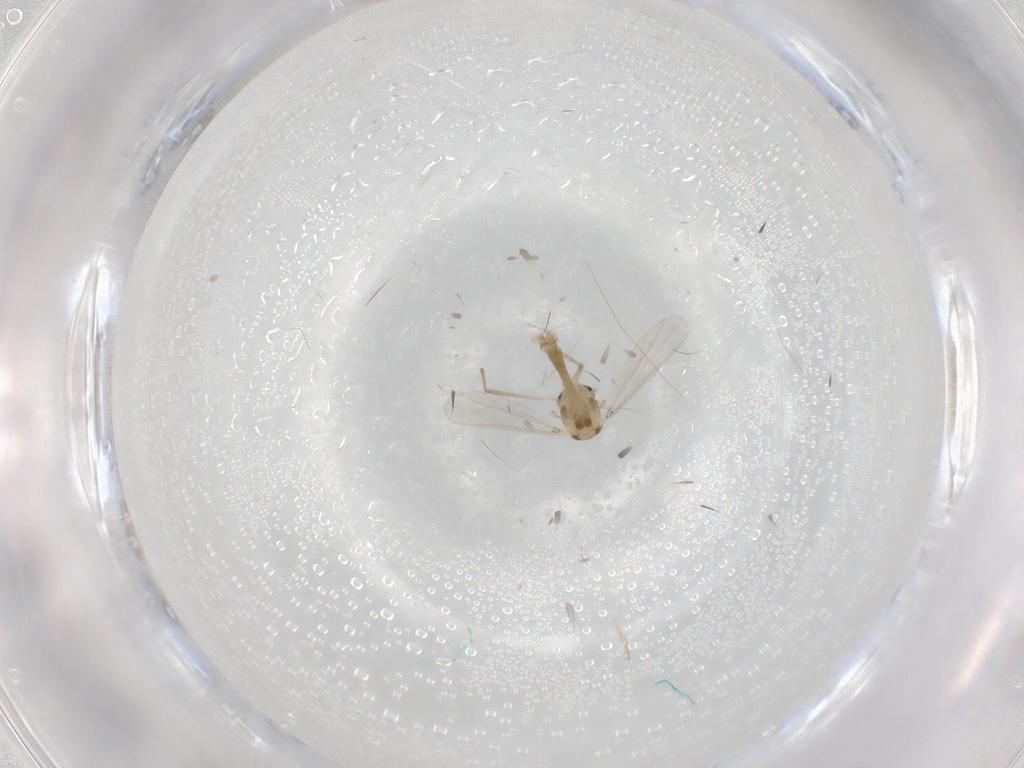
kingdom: Animalia
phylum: Arthropoda
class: Insecta
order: Diptera
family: Chironomidae
